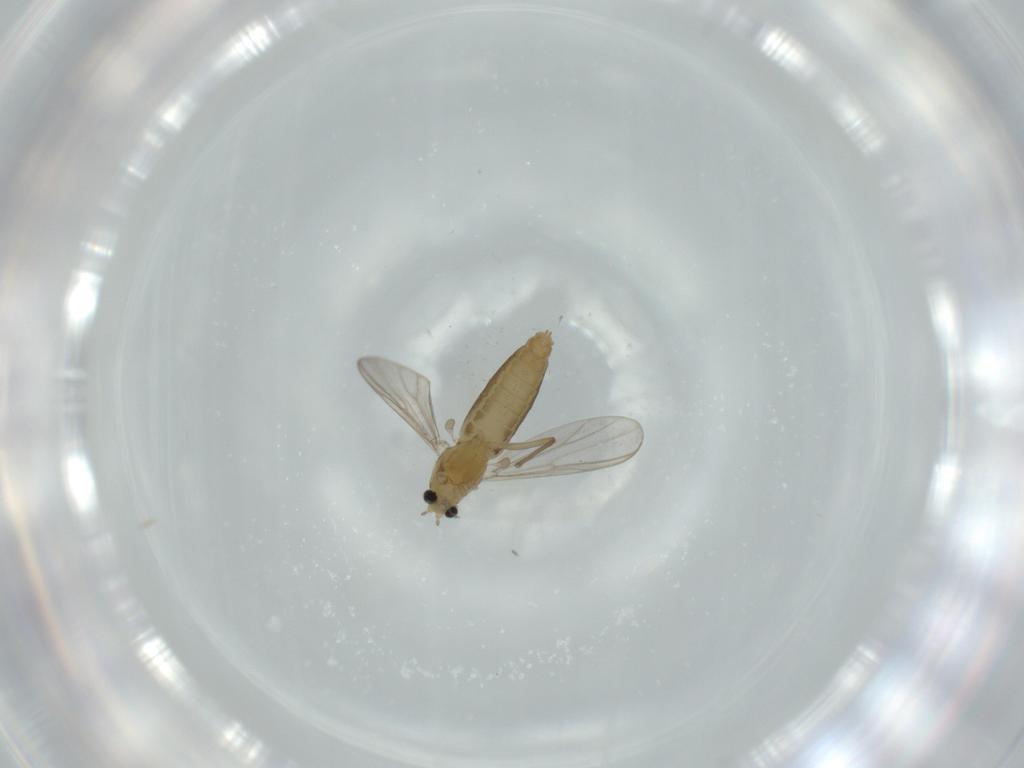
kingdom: Animalia
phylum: Arthropoda
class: Insecta
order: Diptera
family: Chironomidae
